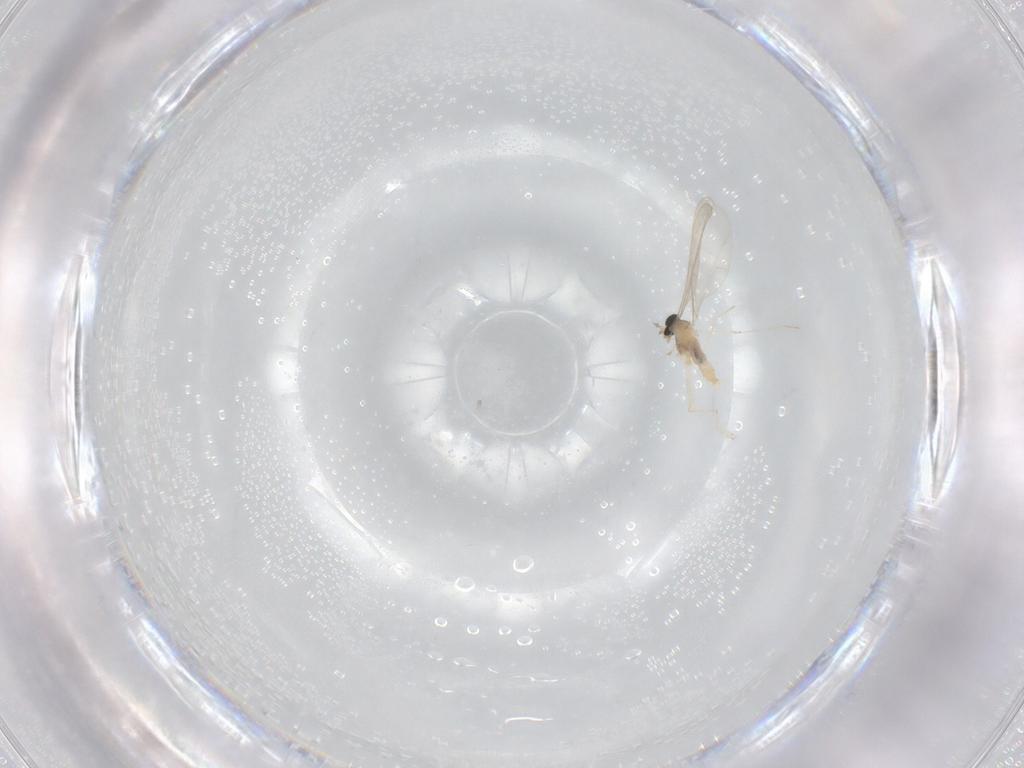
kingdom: Animalia
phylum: Arthropoda
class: Insecta
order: Diptera
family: Cecidomyiidae
